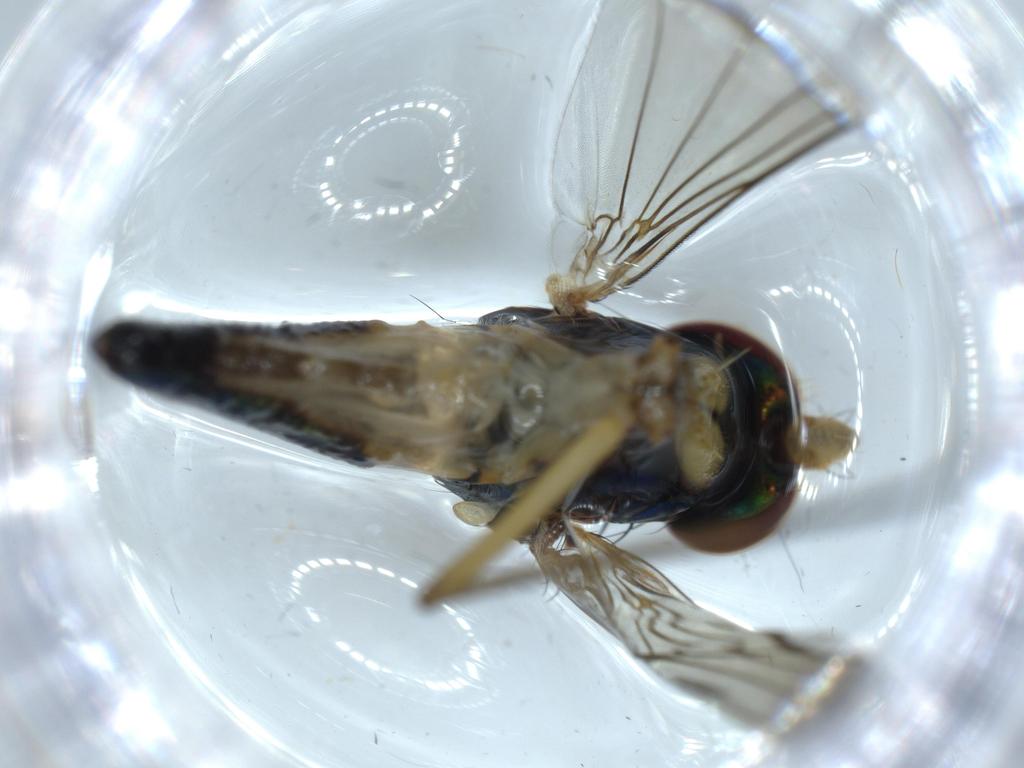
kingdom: Animalia
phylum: Arthropoda
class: Insecta
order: Diptera
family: Dolichopodidae
